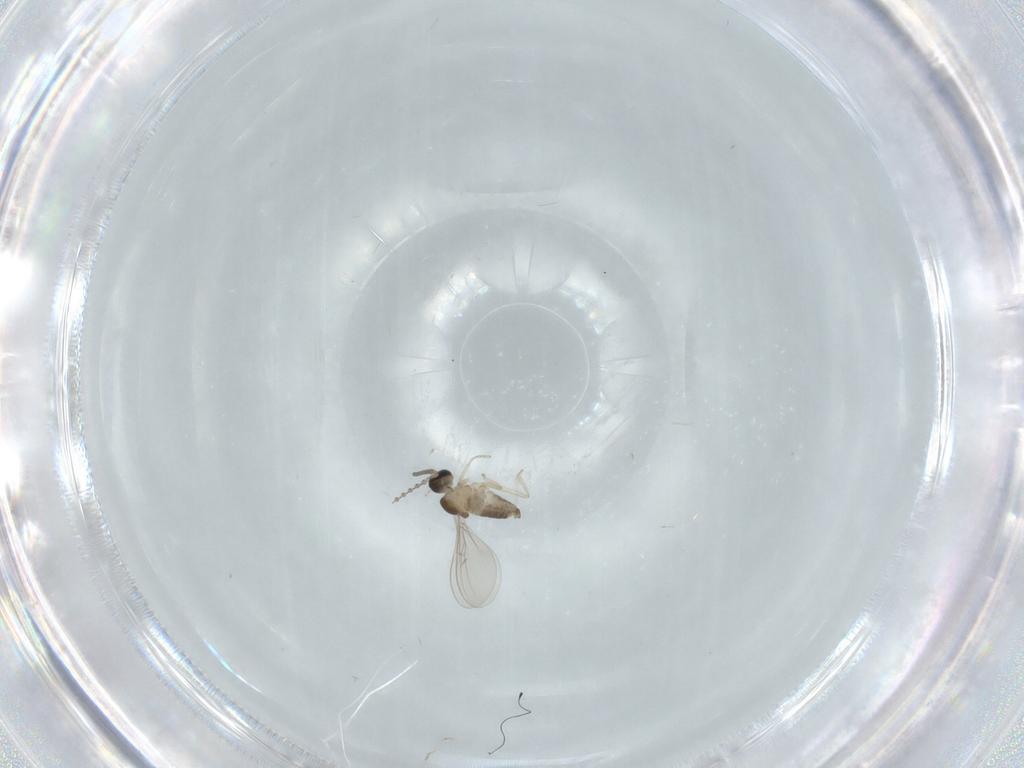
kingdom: Animalia
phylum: Arthropoda
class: Insecta
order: Diptera
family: Cecidomyiidae
